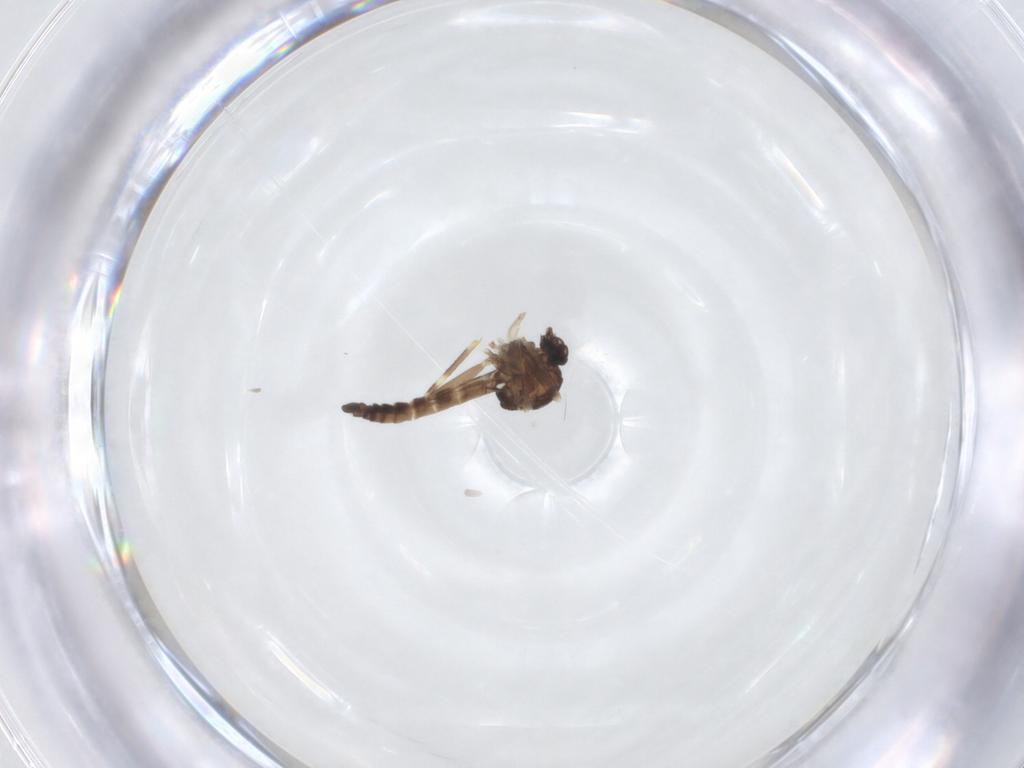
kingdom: Animalia
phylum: Arthropoda
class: Insecta
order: Diptera
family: Ceratopogonidae
